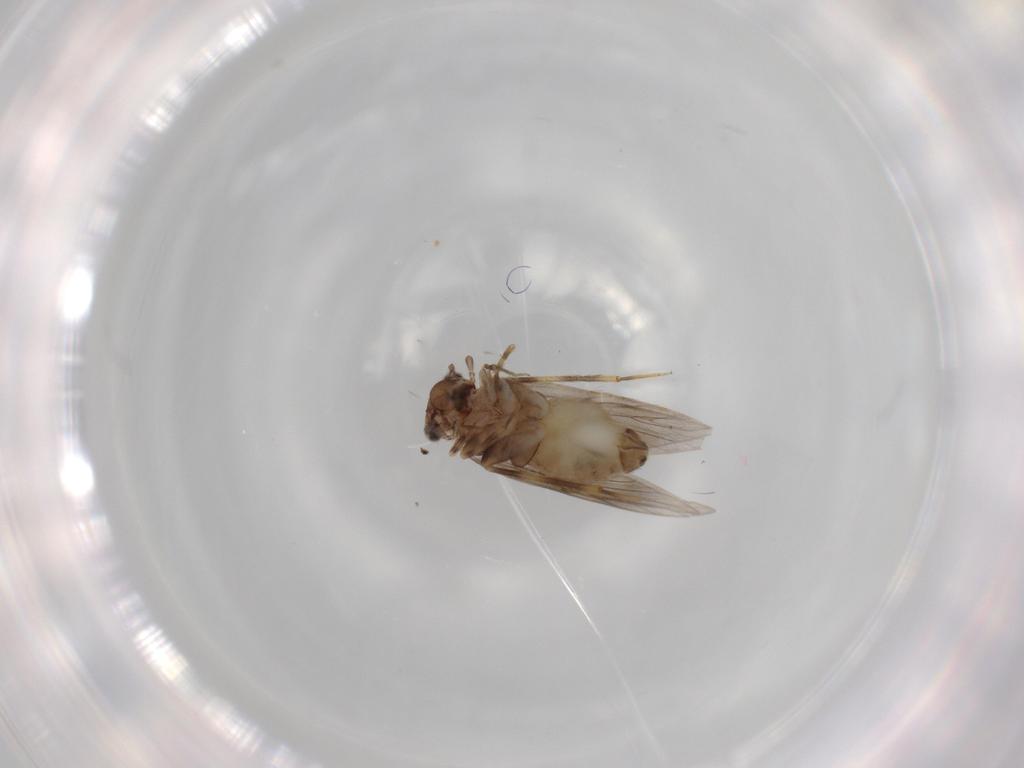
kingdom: Animalia
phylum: Arthropoda
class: Insecta
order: Psocodea
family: Lepidopsocidae
